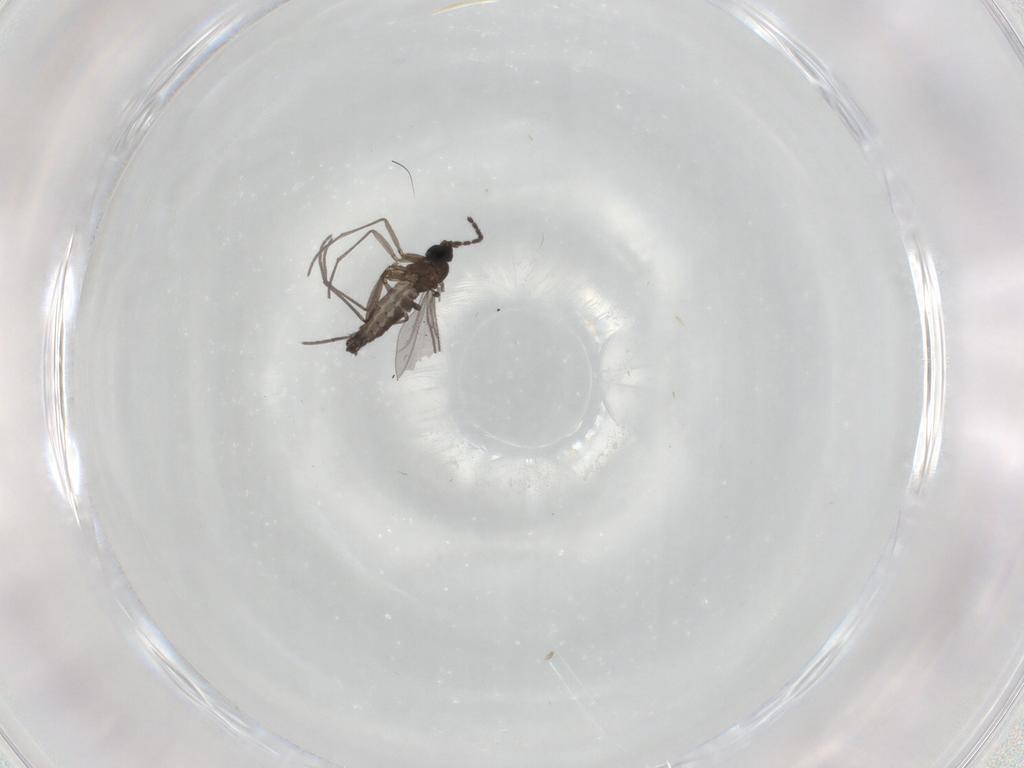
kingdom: Animalia
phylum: Arthropoda
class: Insecta
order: Diptera
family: Cecidomyiidae
